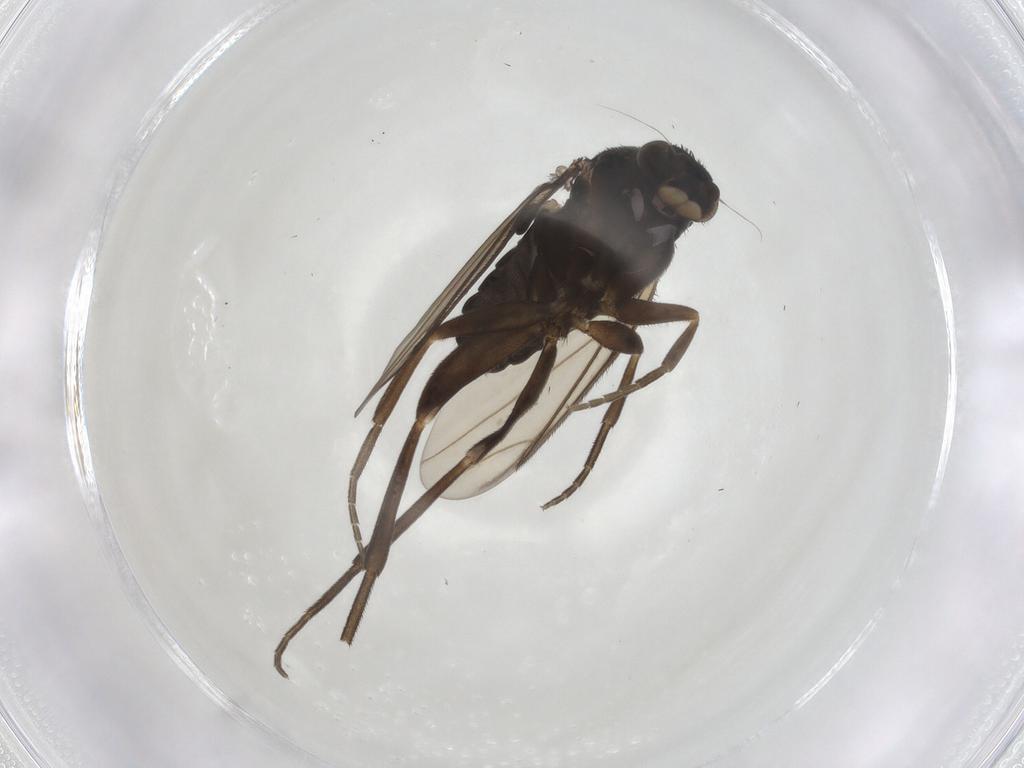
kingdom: Animalia
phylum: Arthropoda
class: Insecta
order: Diptera
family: Phoridae
